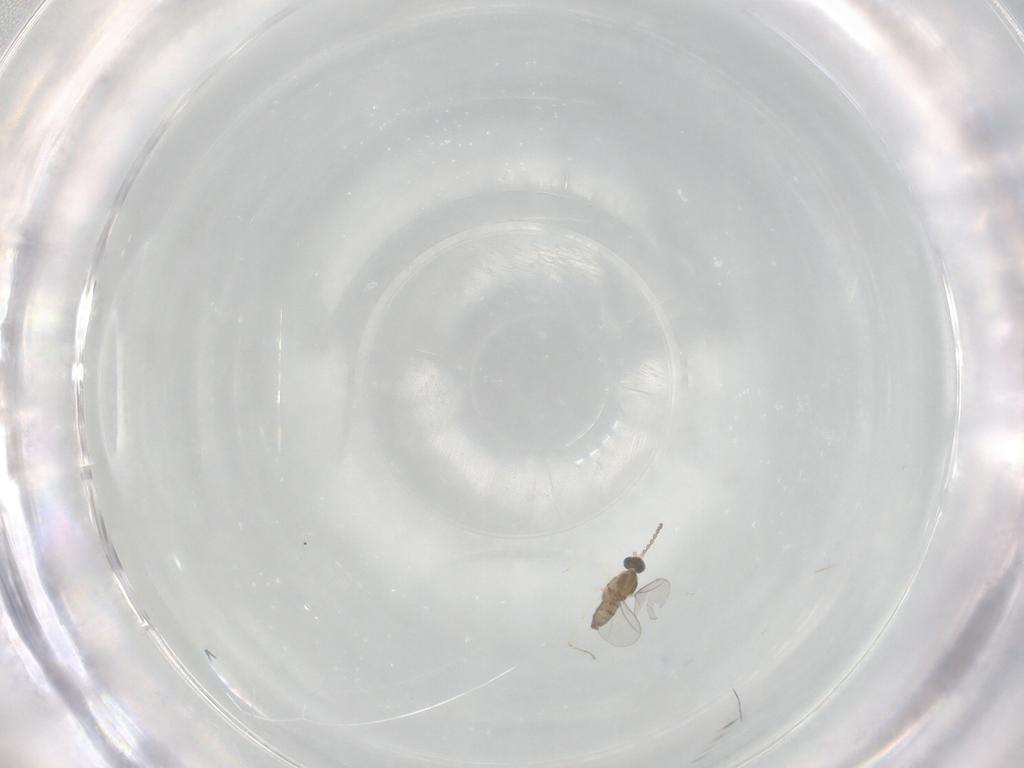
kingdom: Animalia
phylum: Arthropoda
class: Insecta
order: Diptera
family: Cecidomyiidae
